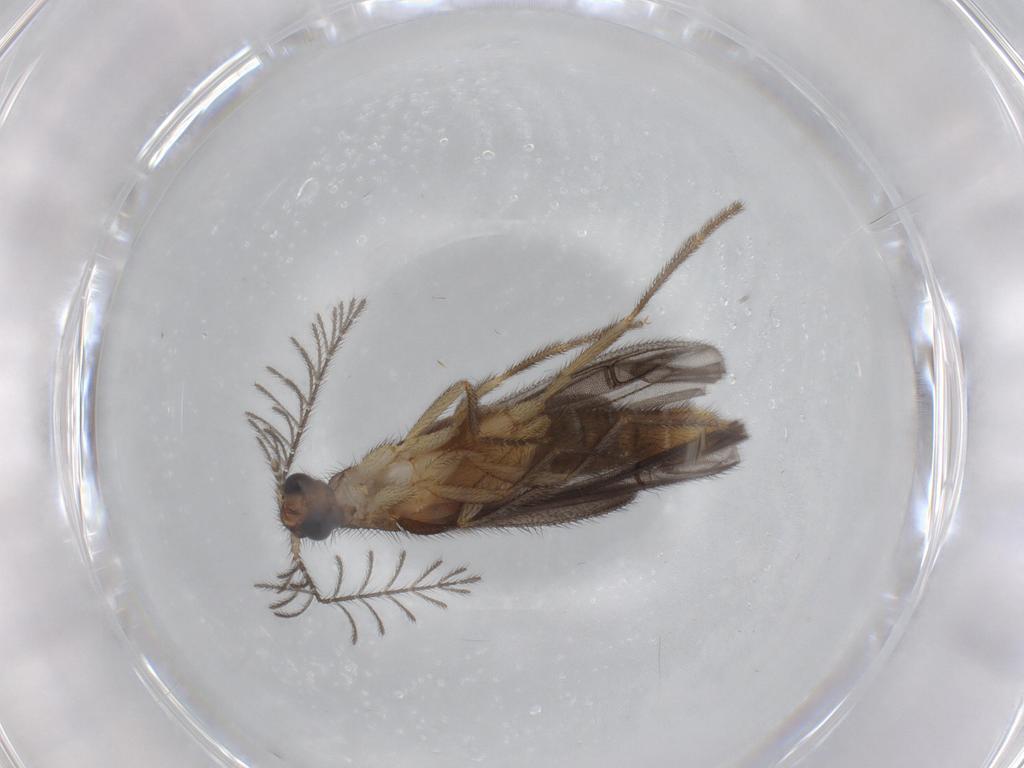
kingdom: Animalia
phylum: Arthropoda
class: Insecta
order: Coleoptera
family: Phengodidae
